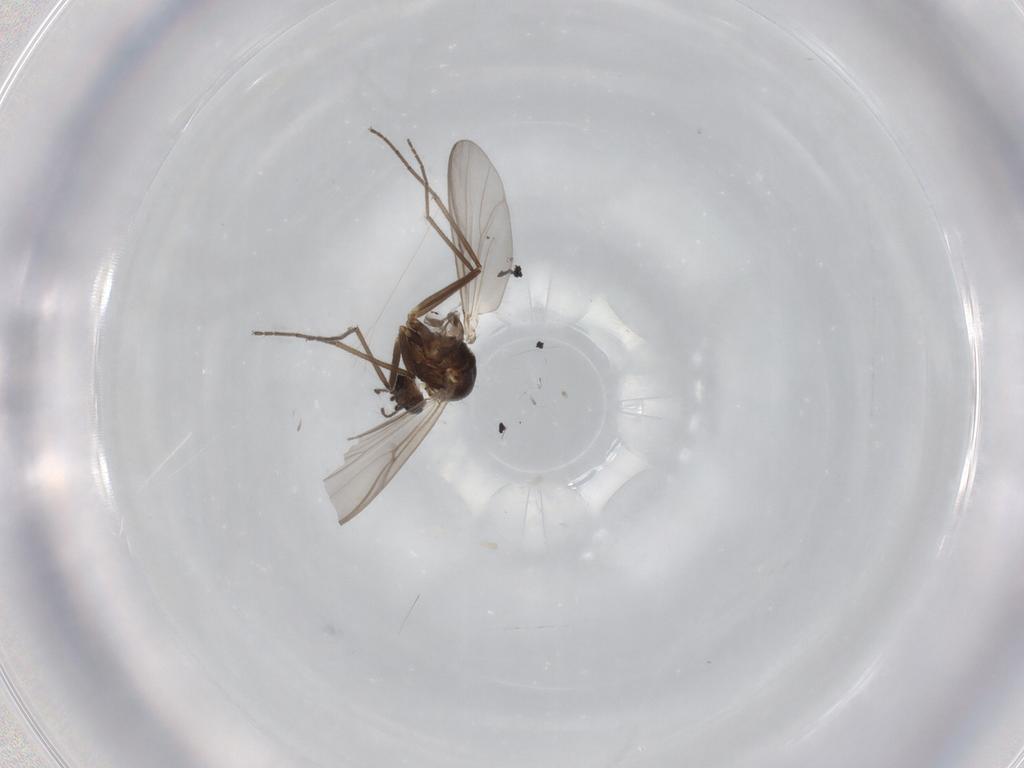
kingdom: Animalia
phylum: Arthropoda
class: Insecta
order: Diptera
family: Chironomidae
